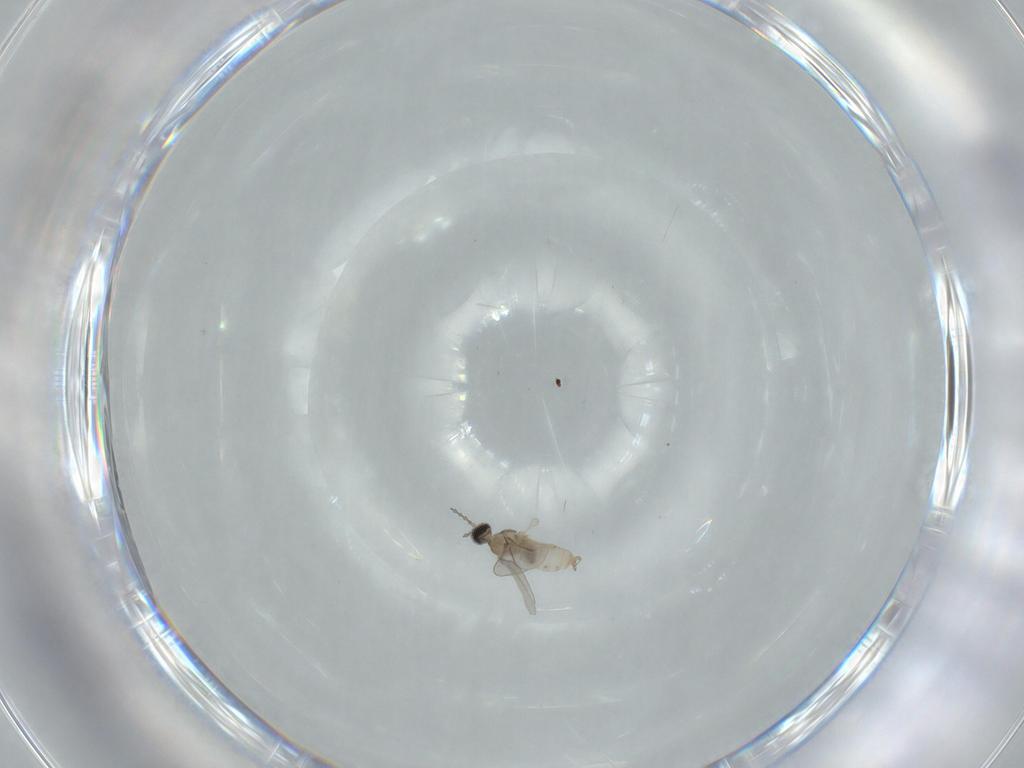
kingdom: Animalia
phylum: Arthropoda
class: Insecta
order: Diptera
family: Cecidomyiidae
